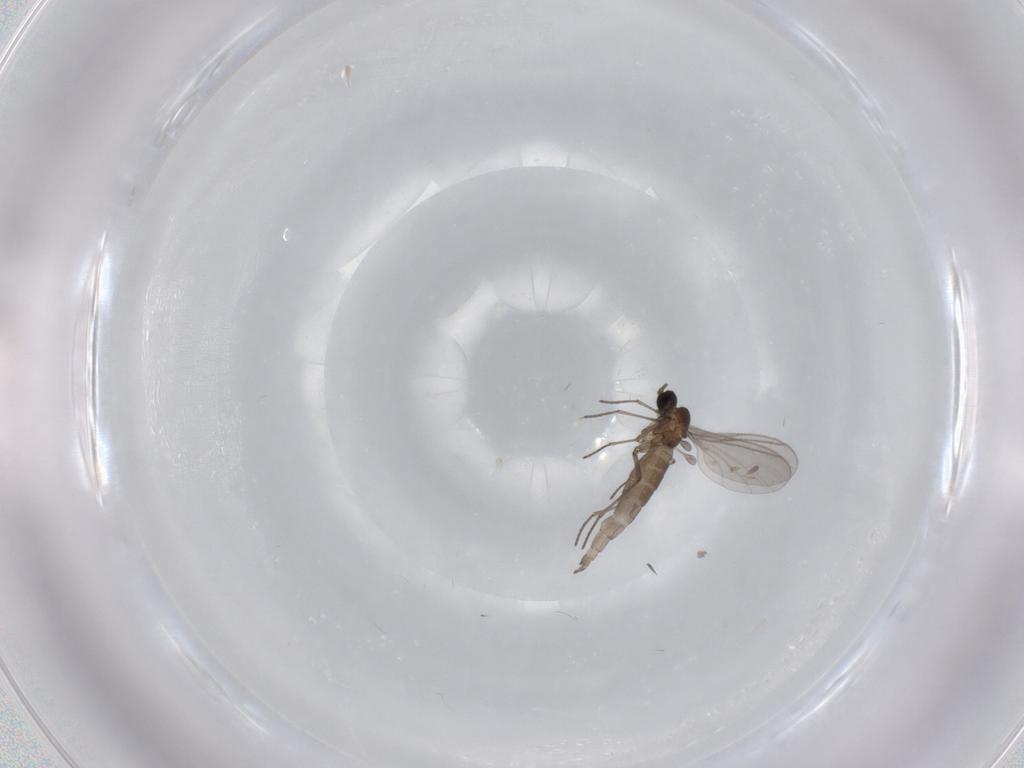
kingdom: Animalia
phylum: Arthropoda
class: Insecta
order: Diptera
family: Sciaridae
